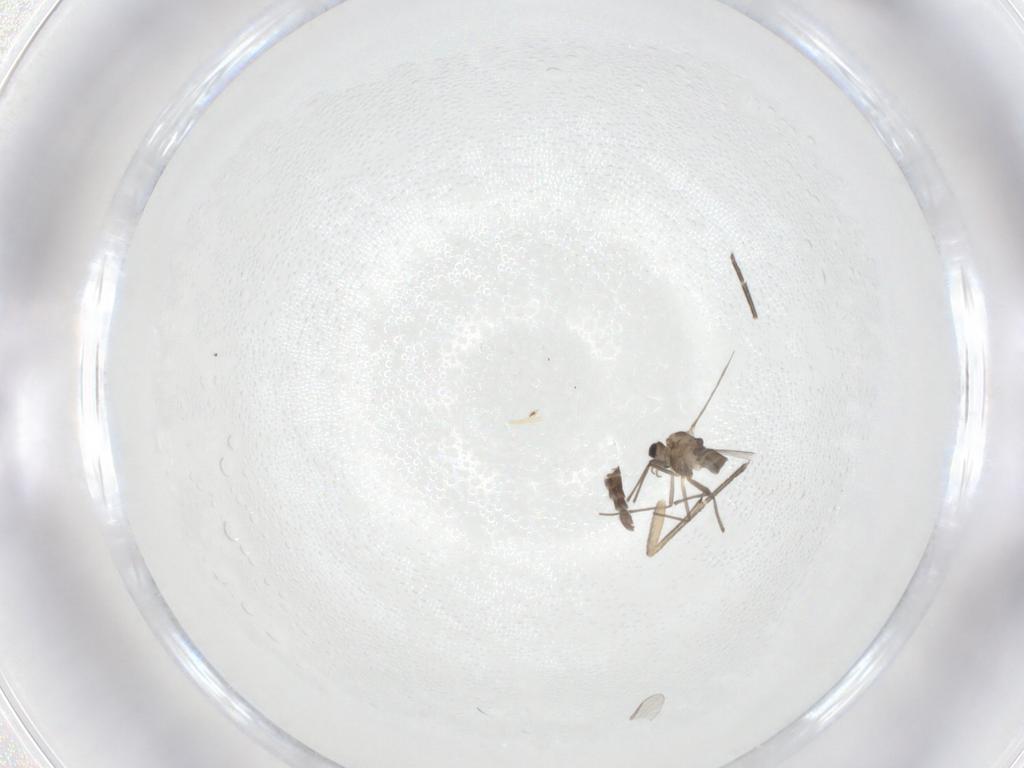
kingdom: Animalia
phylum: Arthropoda
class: Insecta
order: Diptera
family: Chironomidae
